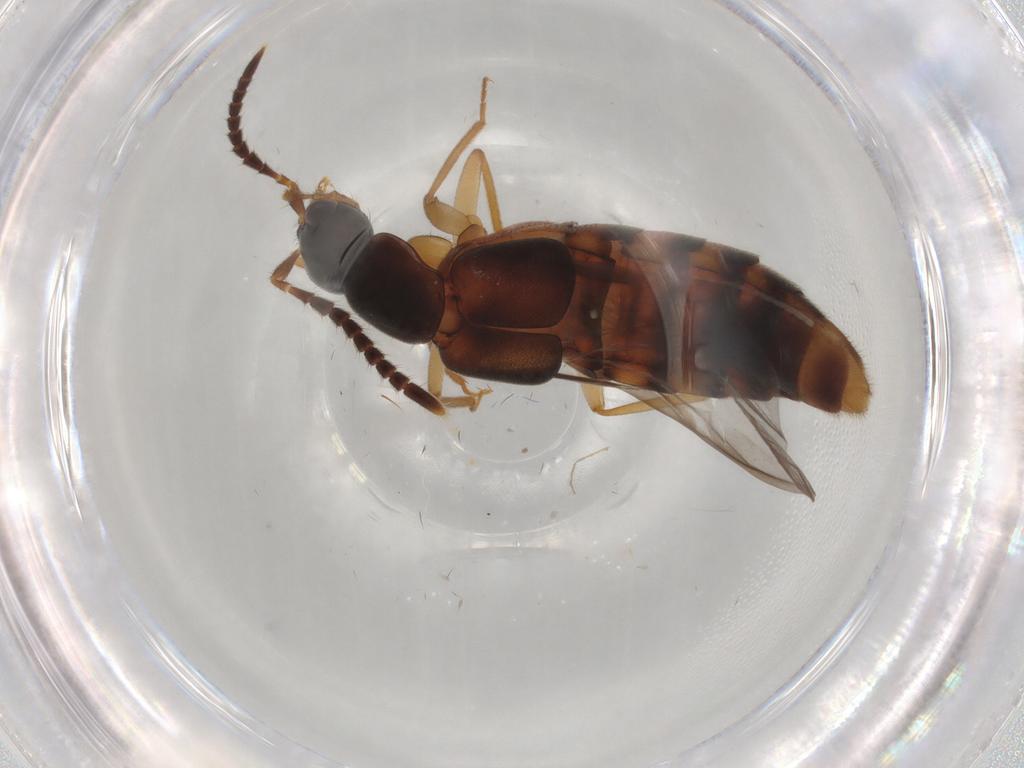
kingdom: Animalia
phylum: Arthropoda
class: Insecta
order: Coleoptera
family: Staphylinidae
